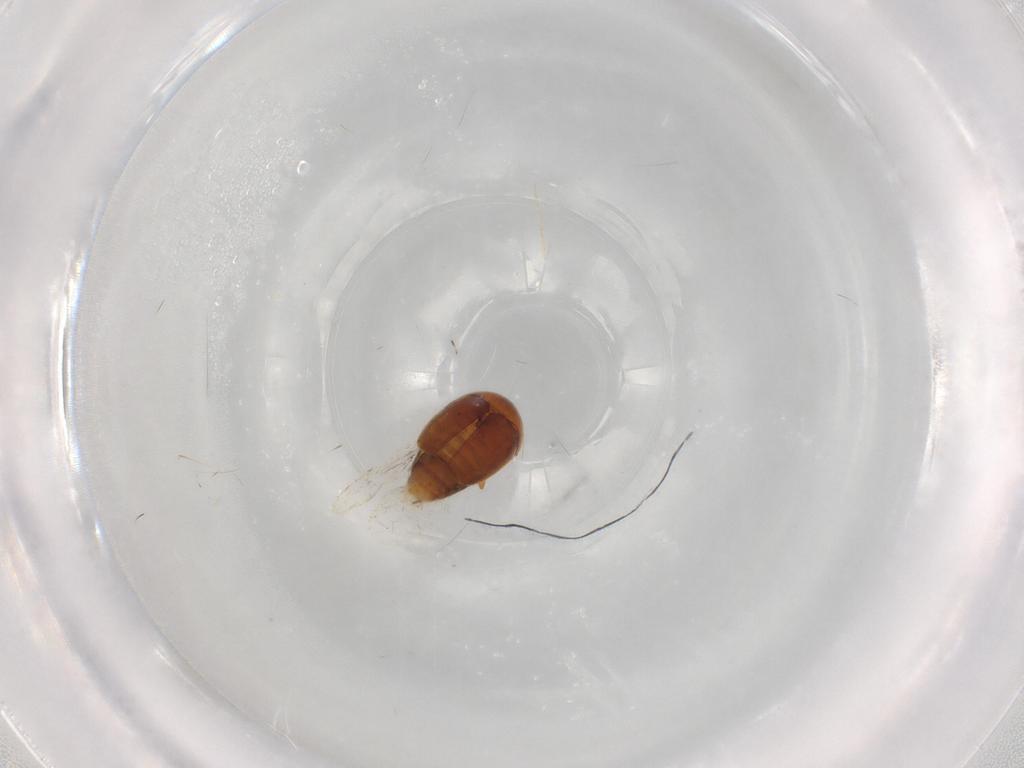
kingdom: Animalia
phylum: Arthropoda
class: Insecta
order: Coleoptera
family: Corylophidae
